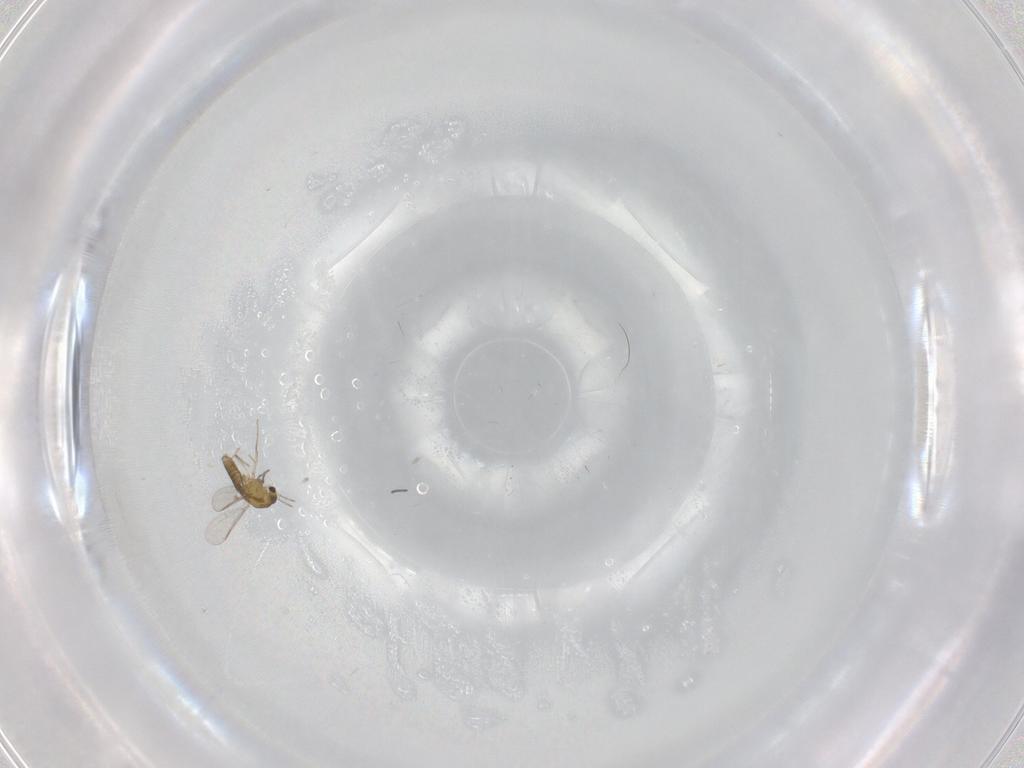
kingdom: Animalia
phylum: Arthropoda
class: Insecta
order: Diptera
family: Chironomidae
